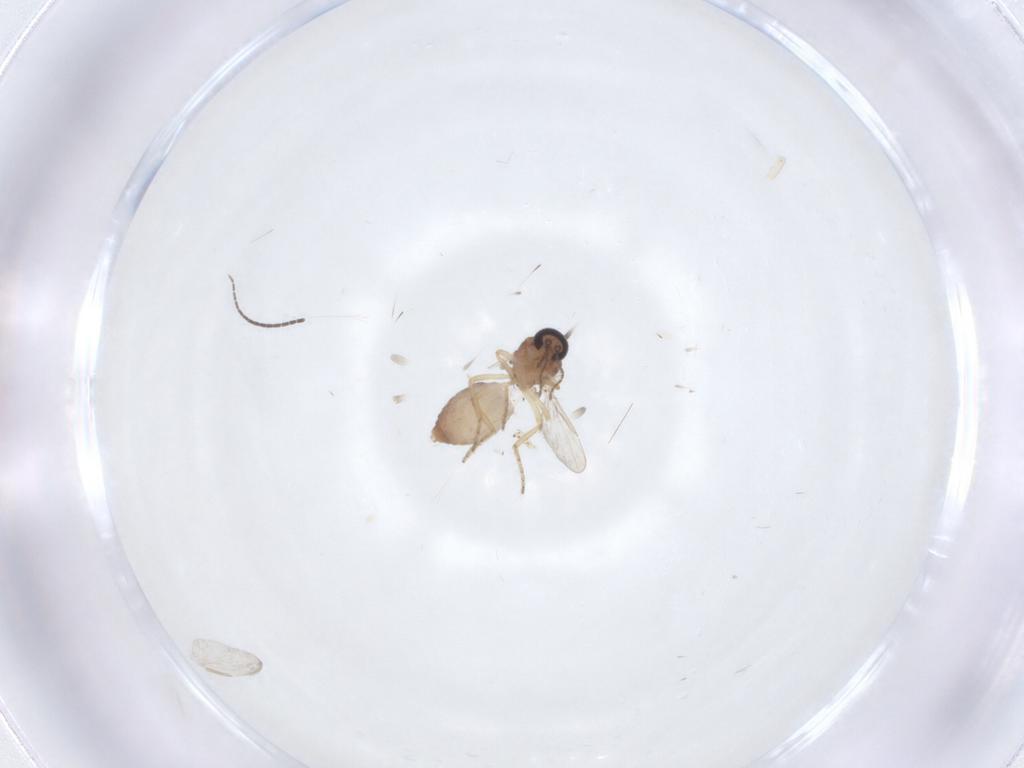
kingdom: Animalia
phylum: Arthropoda
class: Insecta
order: Diptera
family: Ceratopogonidae
